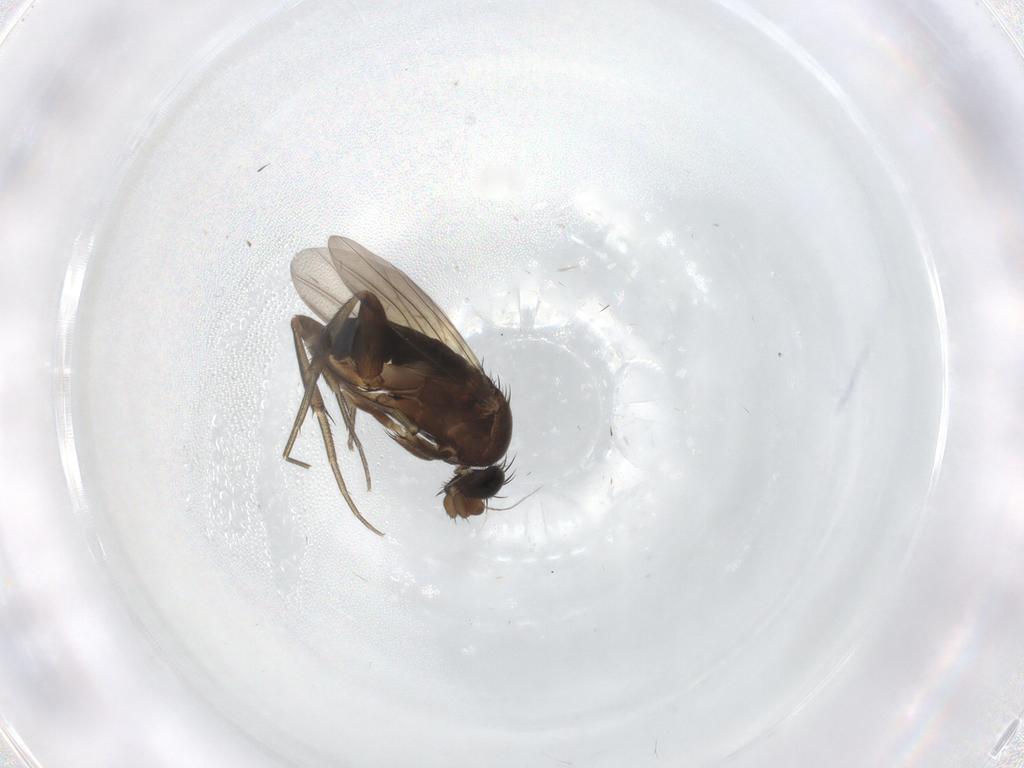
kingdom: Animalia
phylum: Arthropoda
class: Insecta
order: Diptera
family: Phoridae
